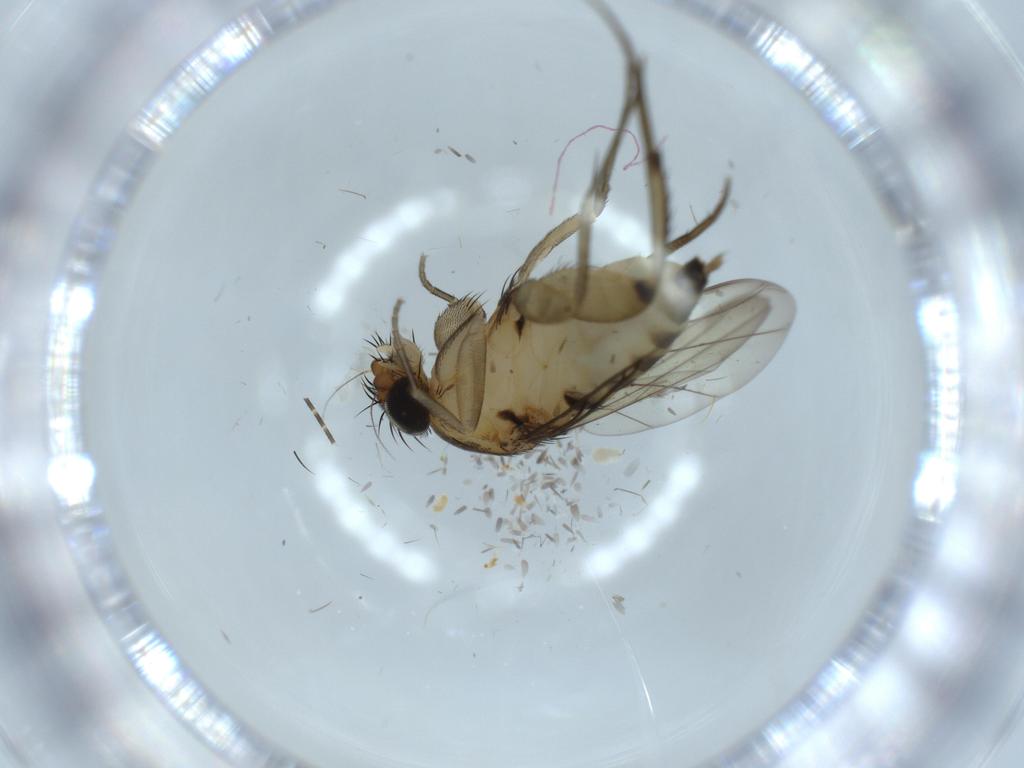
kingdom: Animalia
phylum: Arthropoda
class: Insecta
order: Diptera
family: Phoridae
